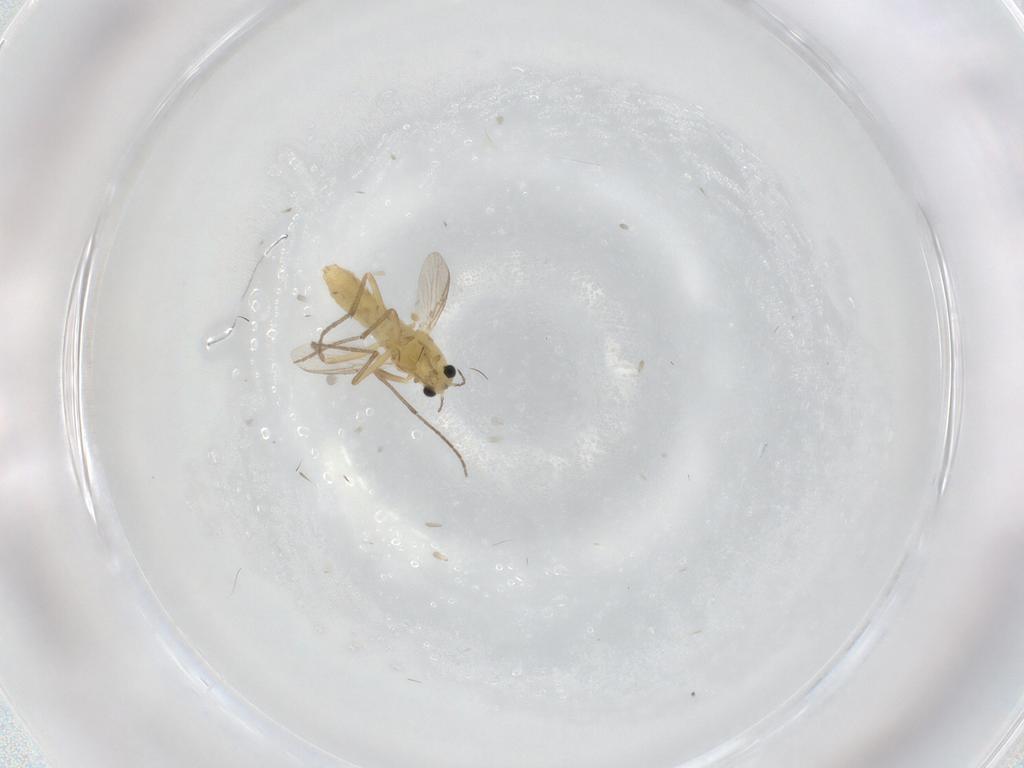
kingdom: Animalia
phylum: Arthropoda
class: Insecta
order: Diptera
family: Chironomidae
